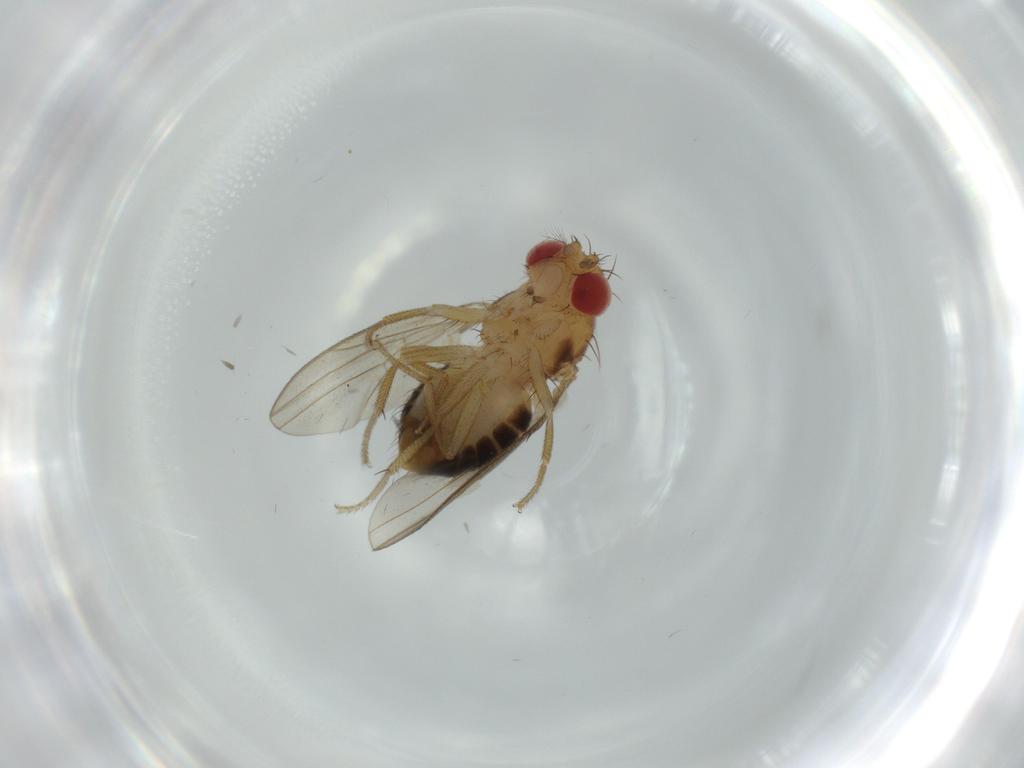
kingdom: Animalia
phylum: Arthropoda
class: Insecta
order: Diptera
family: Drosophilidae
